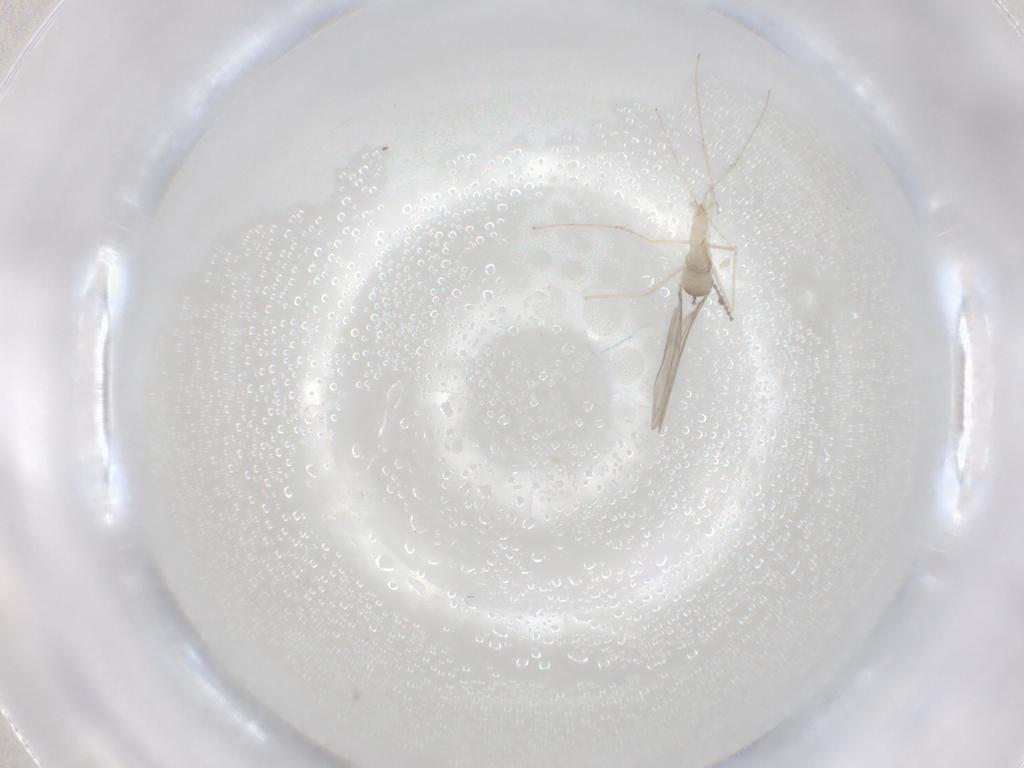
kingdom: Animalia
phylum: Arthropoda
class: Insecta
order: Diptera
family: Cecidomyiidae
